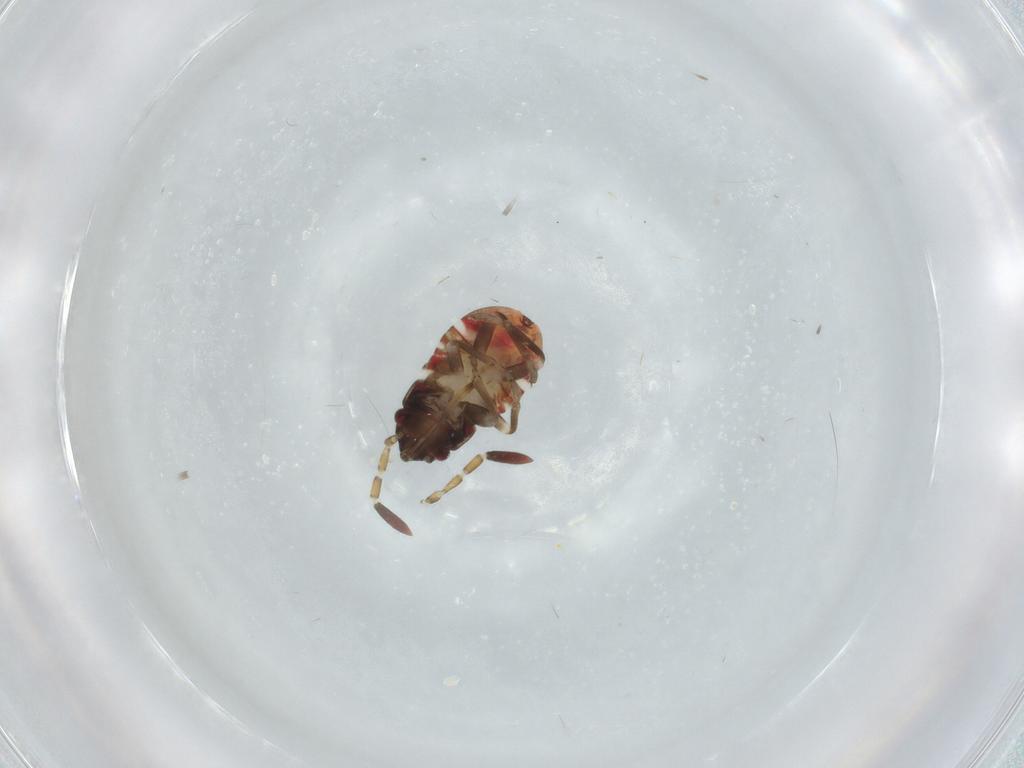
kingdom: Animalia
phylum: Arthropoda
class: Insecta
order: Hemiptera
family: Rhyparochromidae
